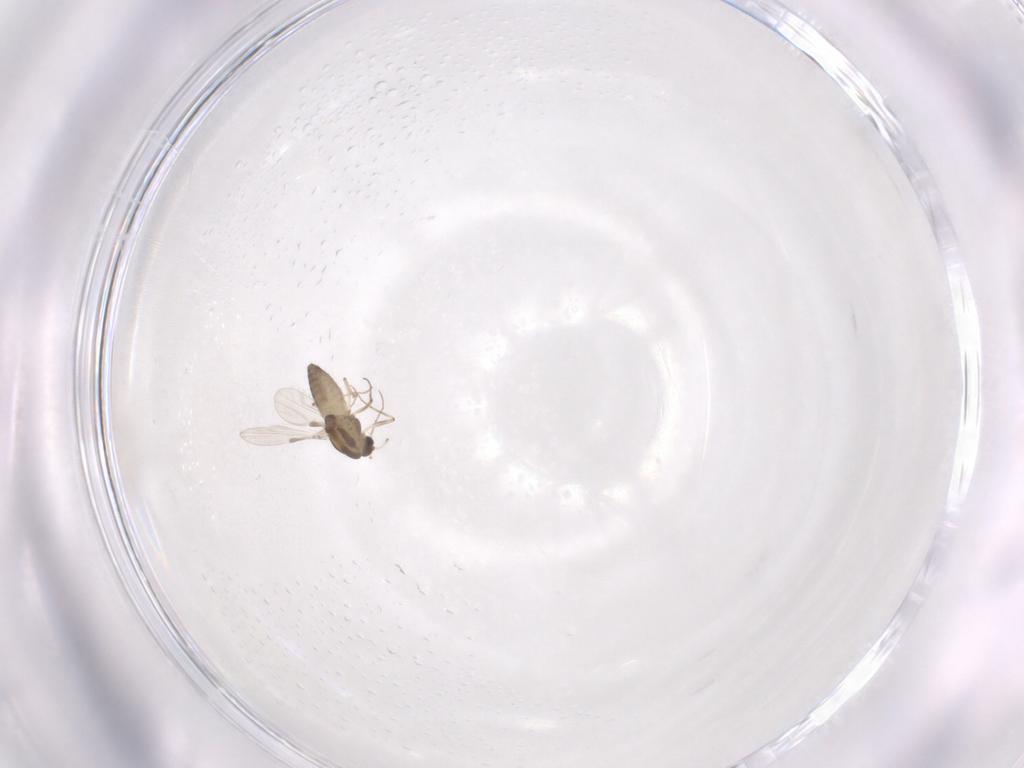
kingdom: Animalia
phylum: Arthropoda
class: Insecta
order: Diptera
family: Chironomidae
